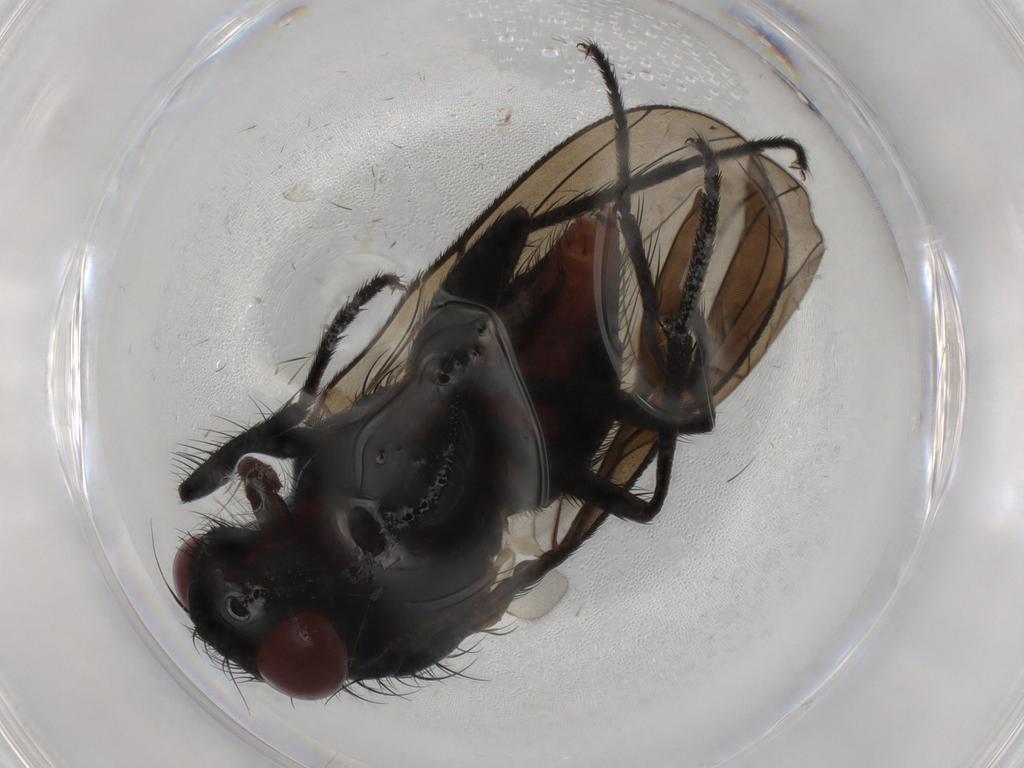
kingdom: Animalia
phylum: Arthropoda
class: Insecta
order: Diptera
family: Anthomyiidae
